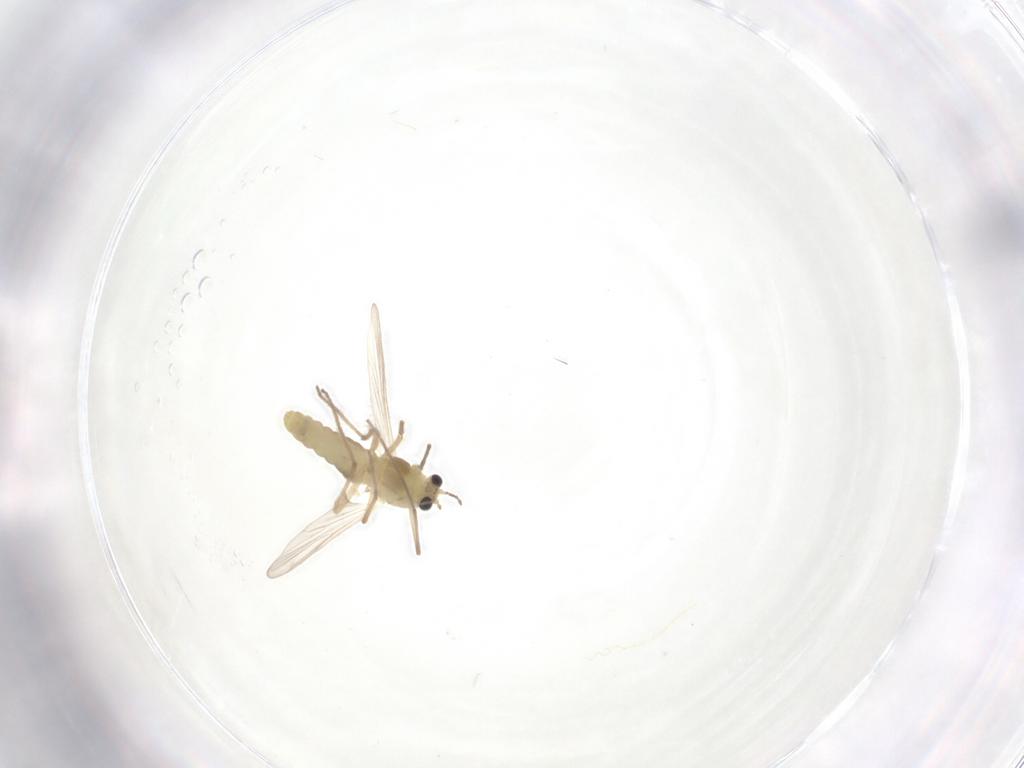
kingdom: Animalia
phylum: Arthropoda
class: Insecta
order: Diptera
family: Chironomidae
